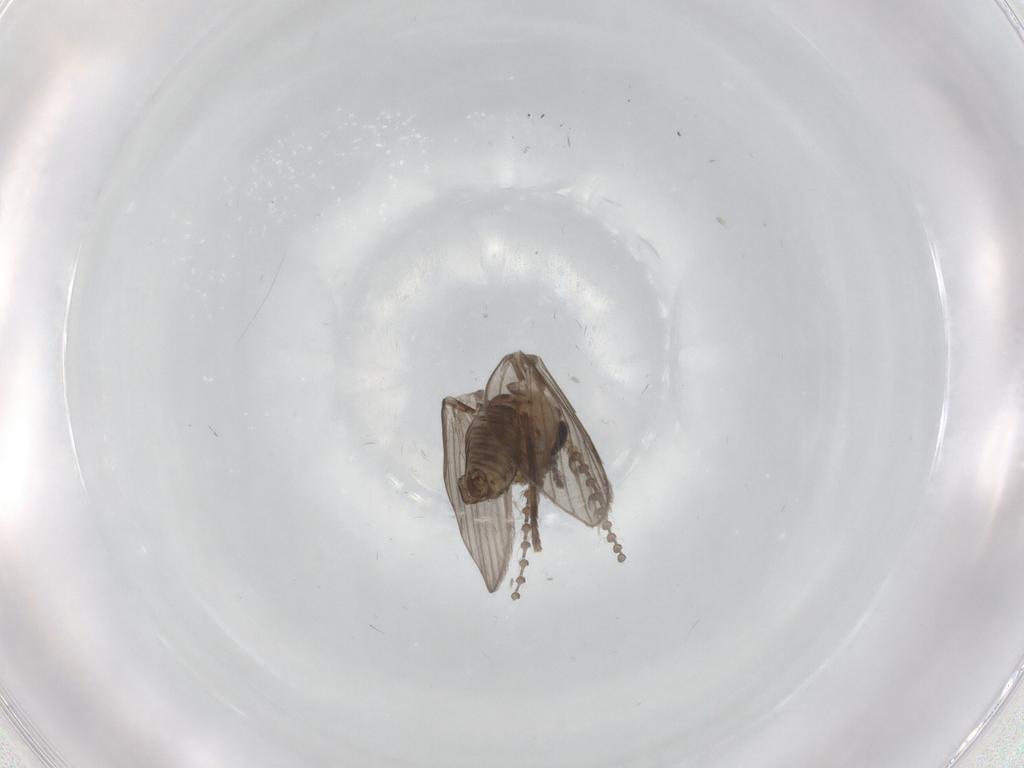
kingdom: Animalia
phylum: Arthropoda
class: Insecta
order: Diptera
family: Psychodidae
